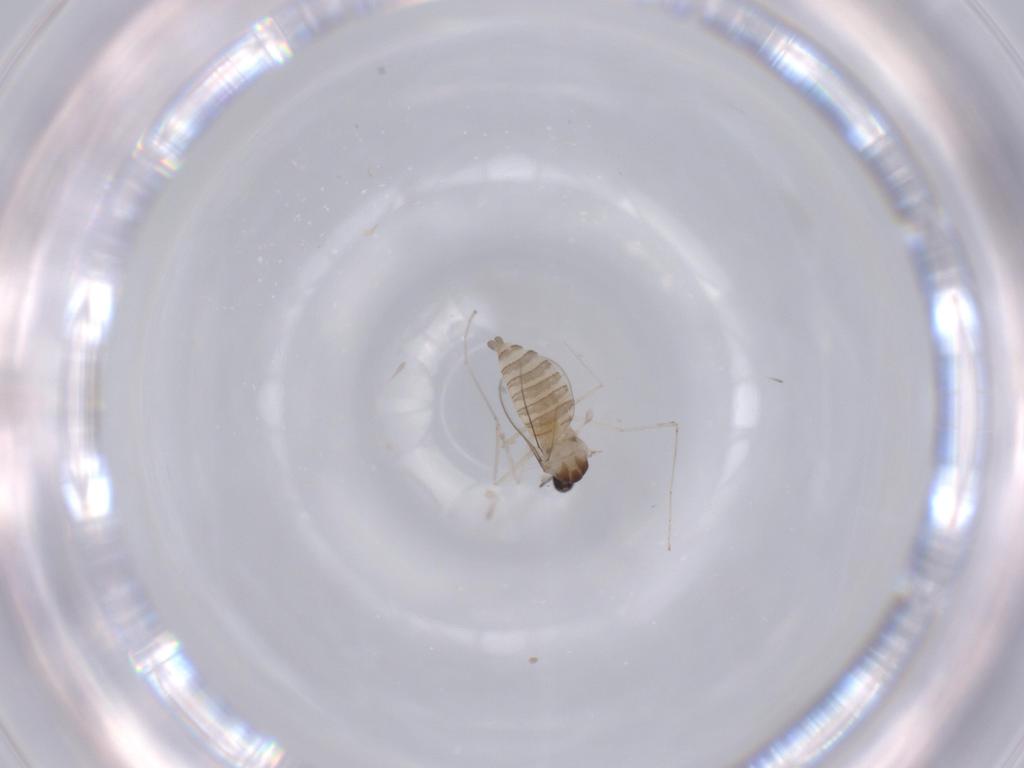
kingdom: Animalia
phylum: Arthropoda
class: Insecta
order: Diptera
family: Cecidomyiidae
